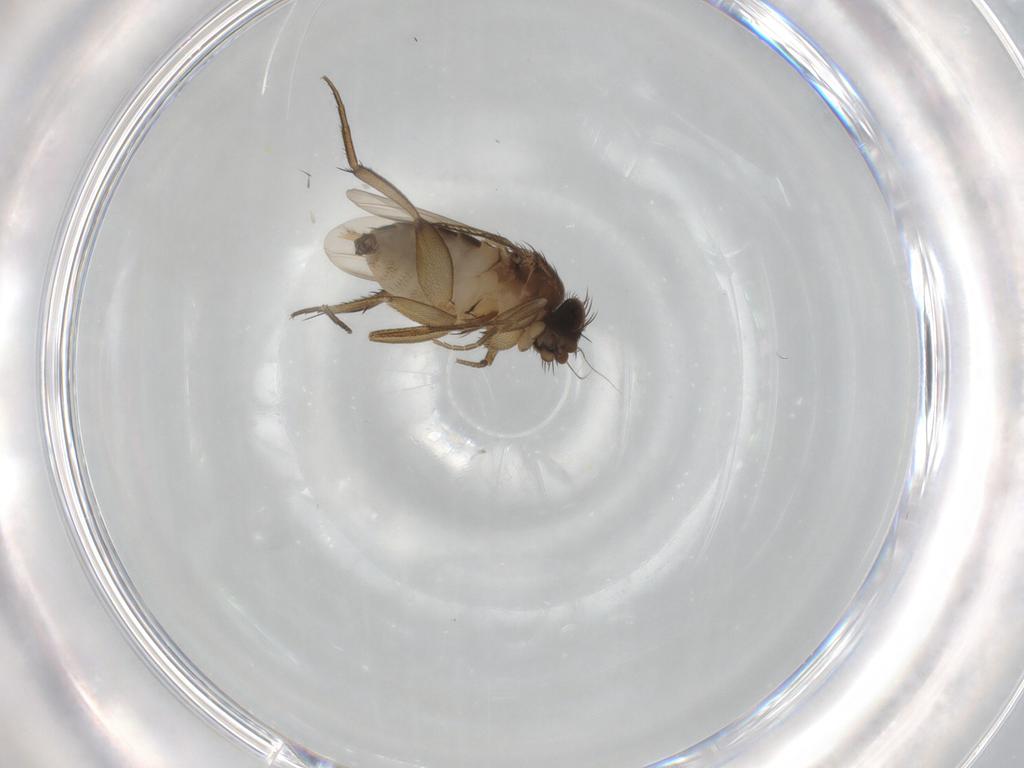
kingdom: Animalia
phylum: Arthropoda
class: Insecta
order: Diptera
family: Phoridae
